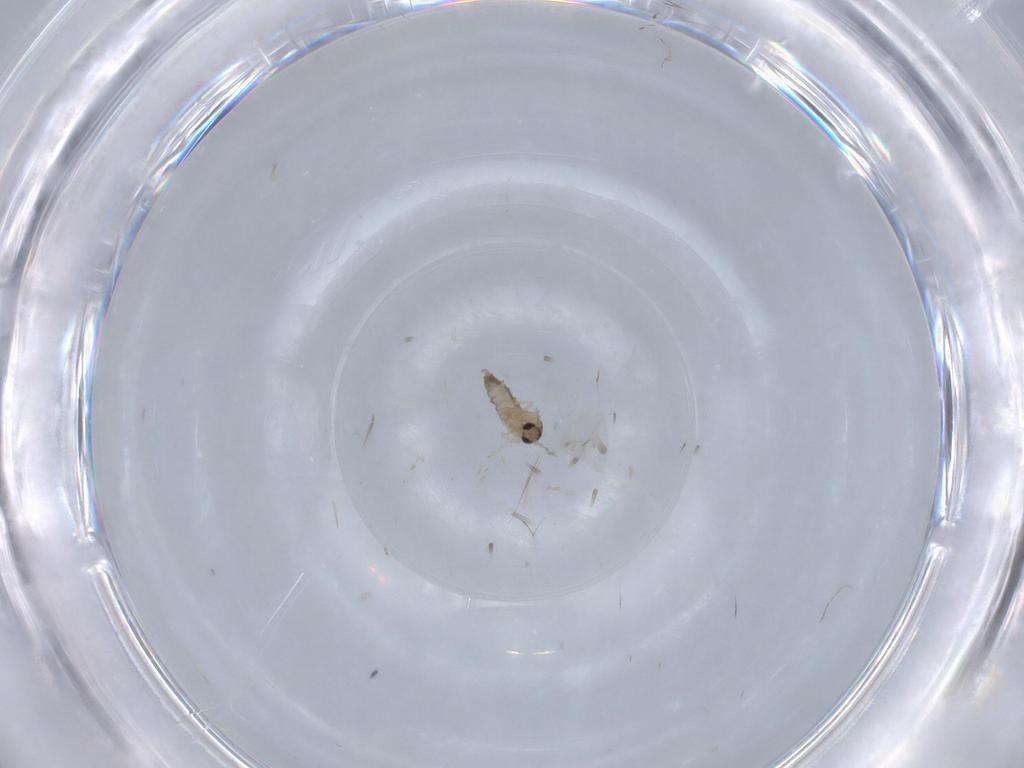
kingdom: Animalia
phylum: Arthropoda
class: Insecta
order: Diptera
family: Cecidomyiidae
